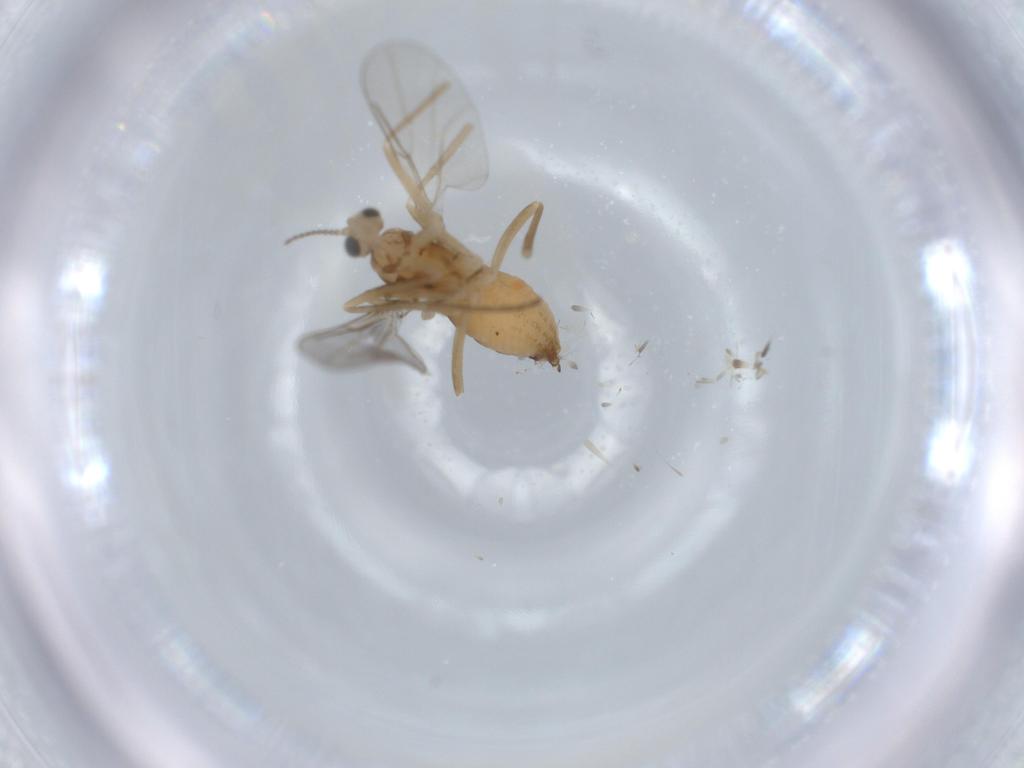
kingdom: Animalia
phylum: Arthropoda
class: Insecta
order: Diptera
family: Cecidomyiidae
